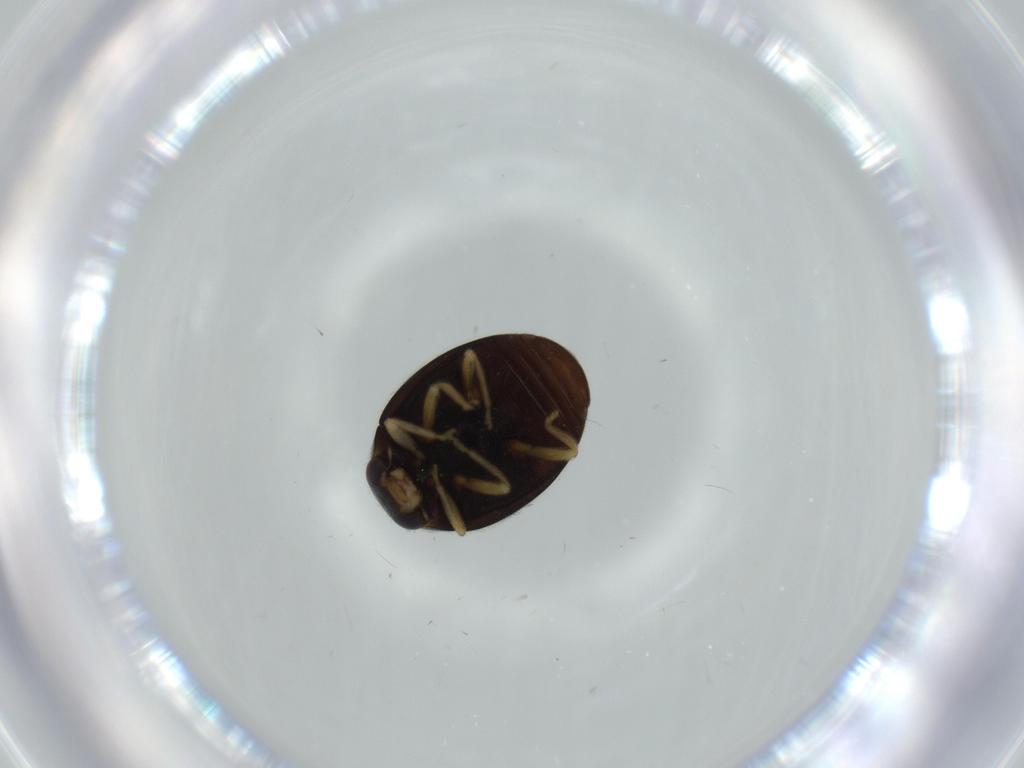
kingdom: Animalia
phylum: Arthropoda
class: Insecta
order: Coleoptera
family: Coccinellidae
